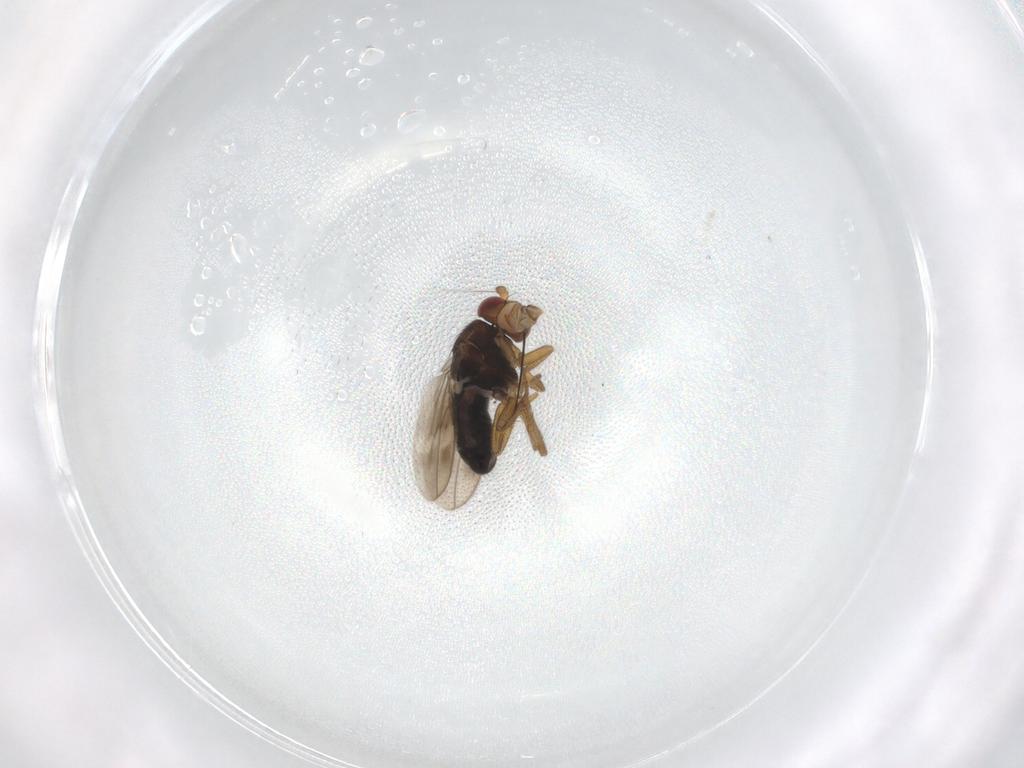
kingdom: Animalia
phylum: Arthropoda
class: Insecta
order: Diptera
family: Sphaeroceridae
